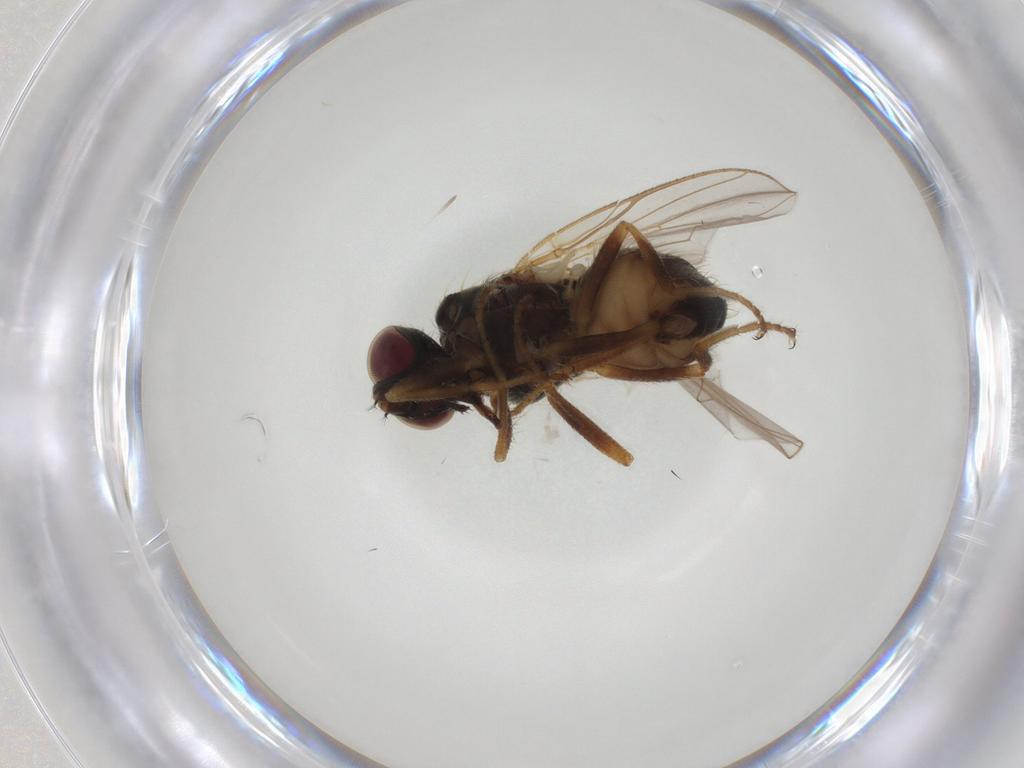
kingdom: Animalia
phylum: Arthropoda
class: Insecta
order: Diptera
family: Muscidae
